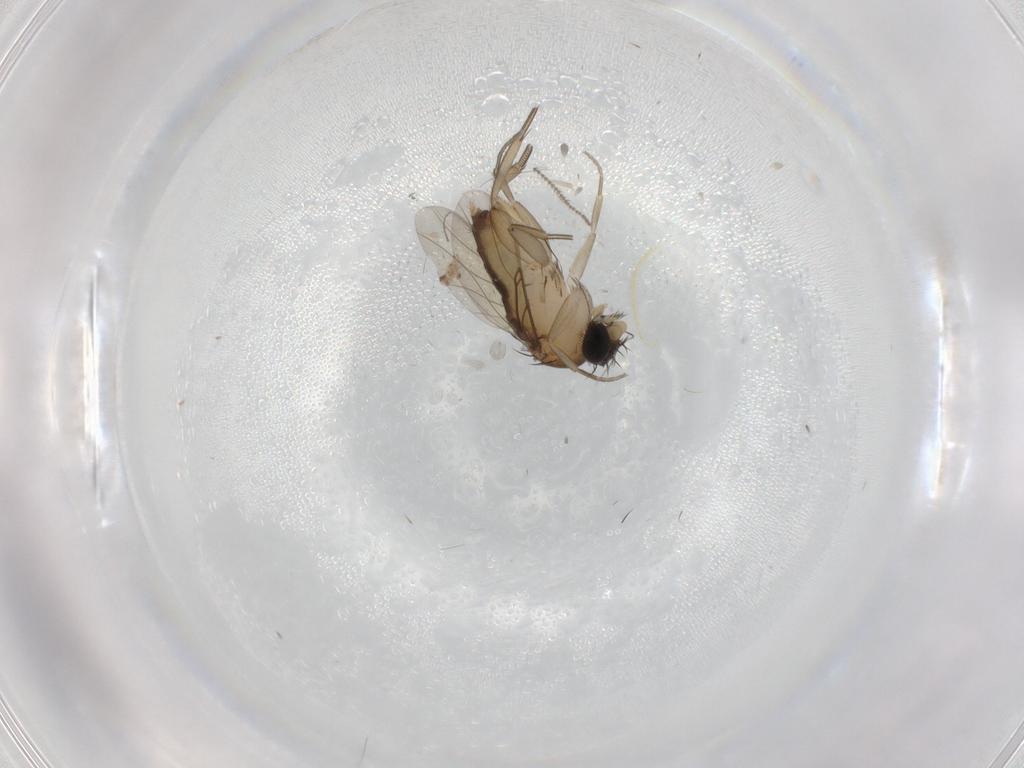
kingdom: Animalia
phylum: Arthropoda
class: Insecta
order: Diptera
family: Phoridae
